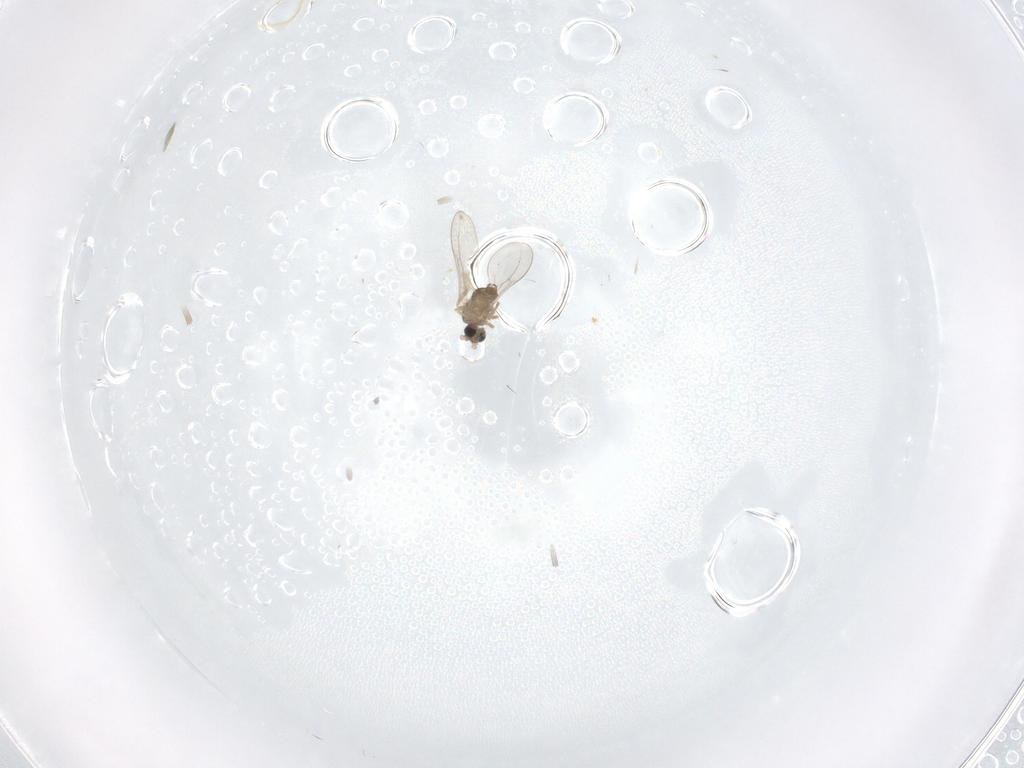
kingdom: Animalia
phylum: Arthropoda
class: Insecta
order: Diptera
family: Cecidomyiidae
